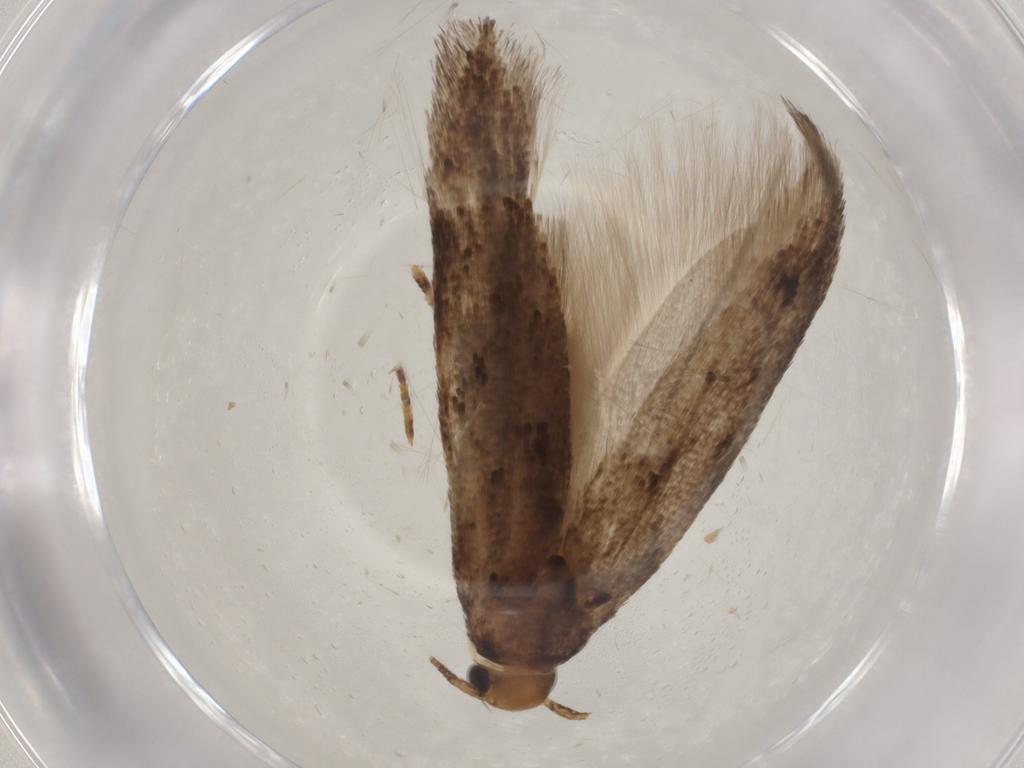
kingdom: Animalia
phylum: Arthropoda
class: Insecta
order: Lepidoptera
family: Gelechiidae
